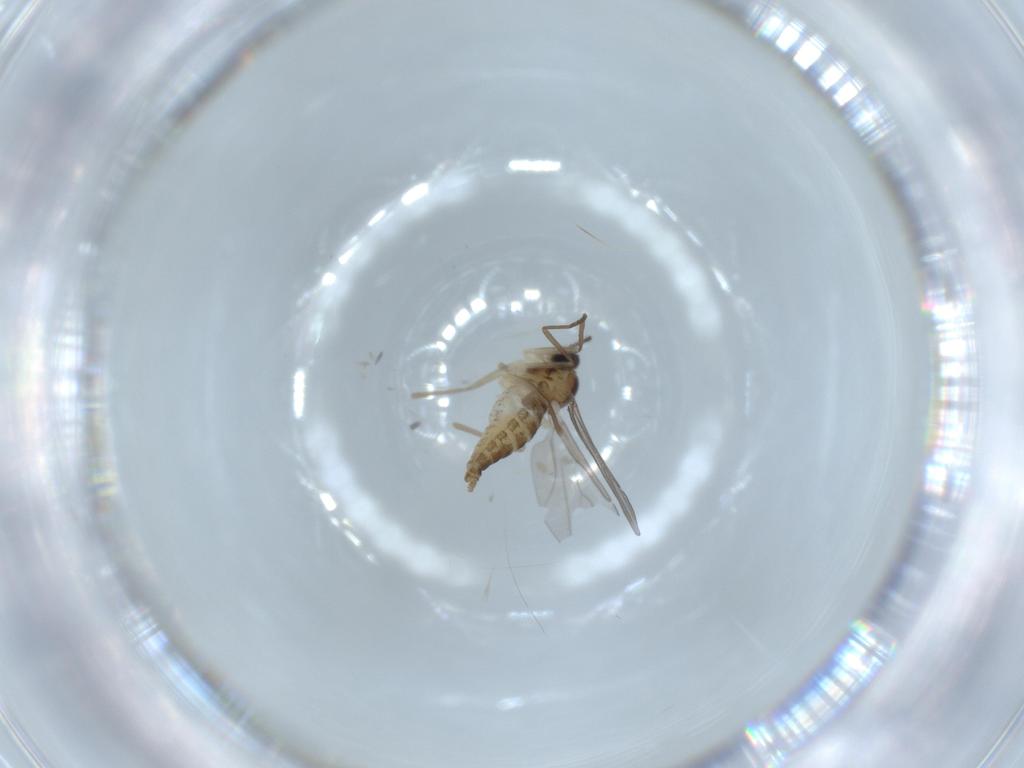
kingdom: Animalia
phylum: Arthropoda
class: Insecta
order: Diptera
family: Cecidomyiidae
